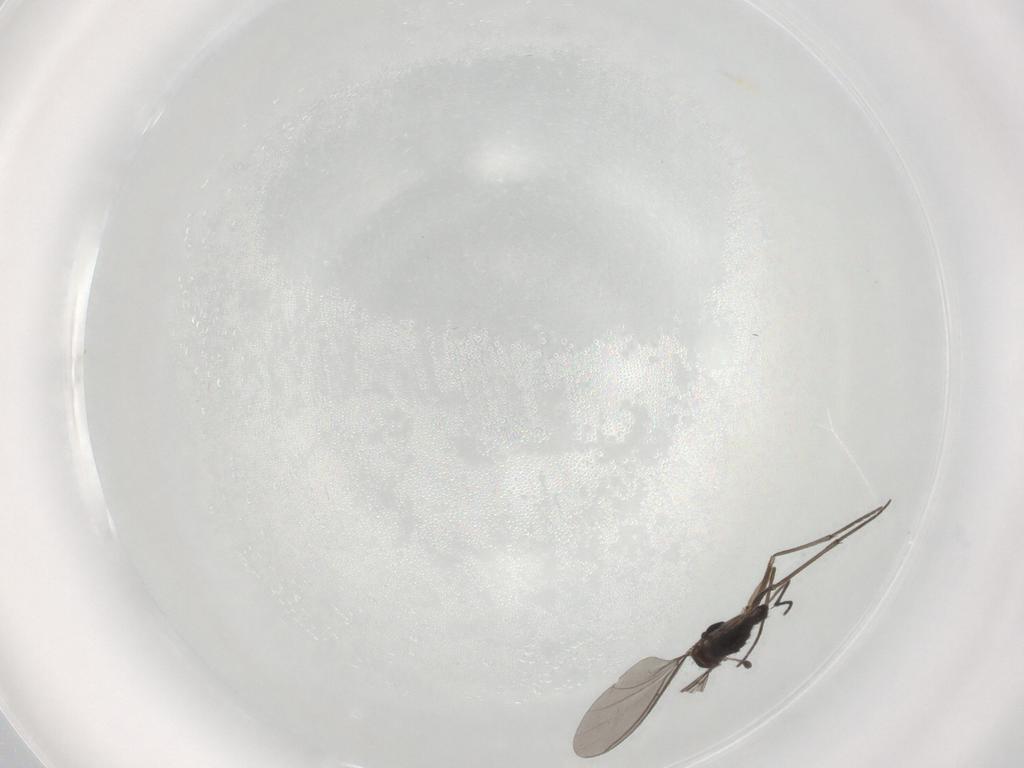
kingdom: Animalia
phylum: Arthropoda
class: Insecta
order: Diptera
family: Sciaridae
